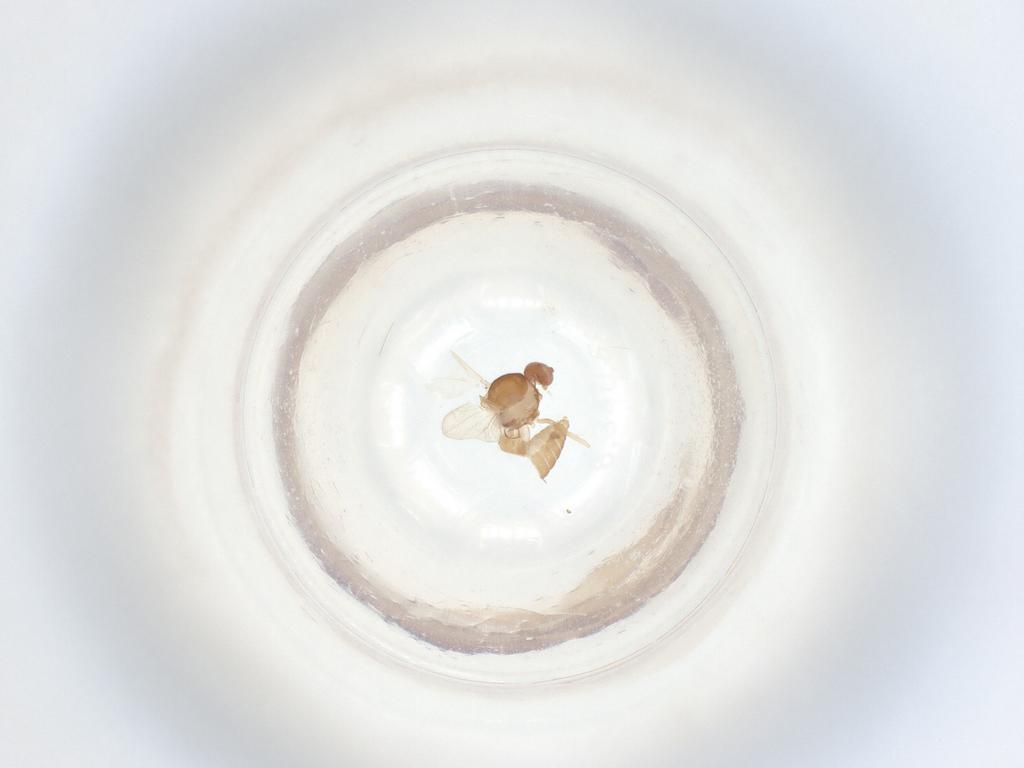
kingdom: Animalia
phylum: Arthropoda
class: Insecta
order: Diptera
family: Ceratopogonidae
